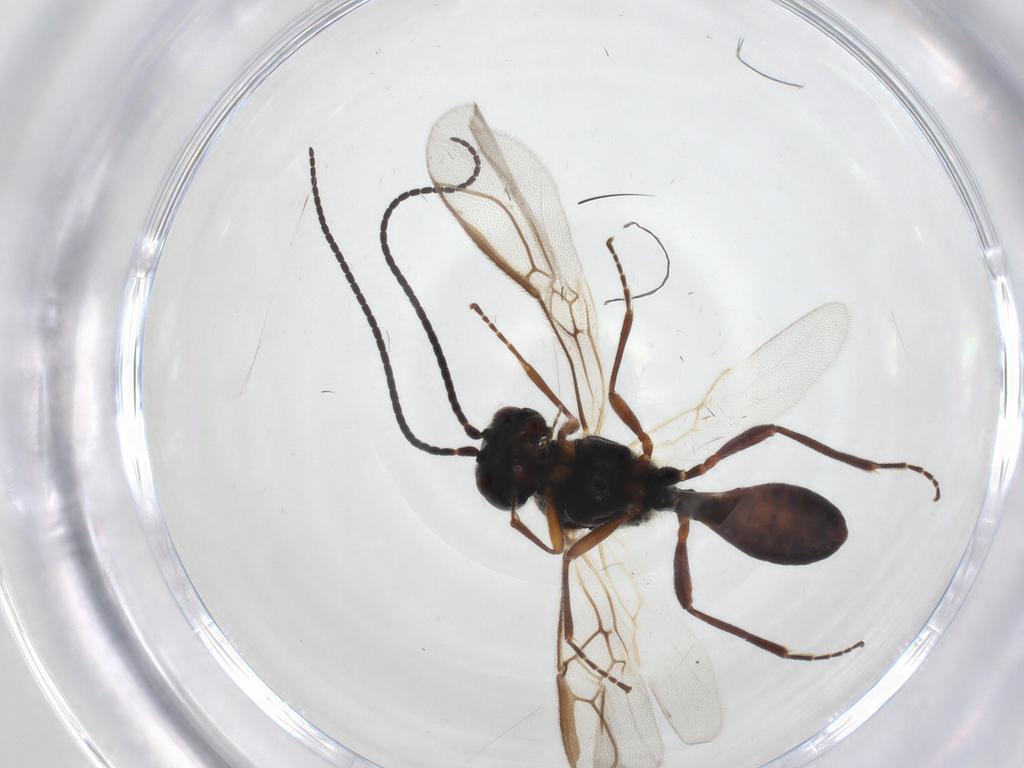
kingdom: Animalia
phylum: Arthropoda
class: Insecta
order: Hymenoptera
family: Braconidae
